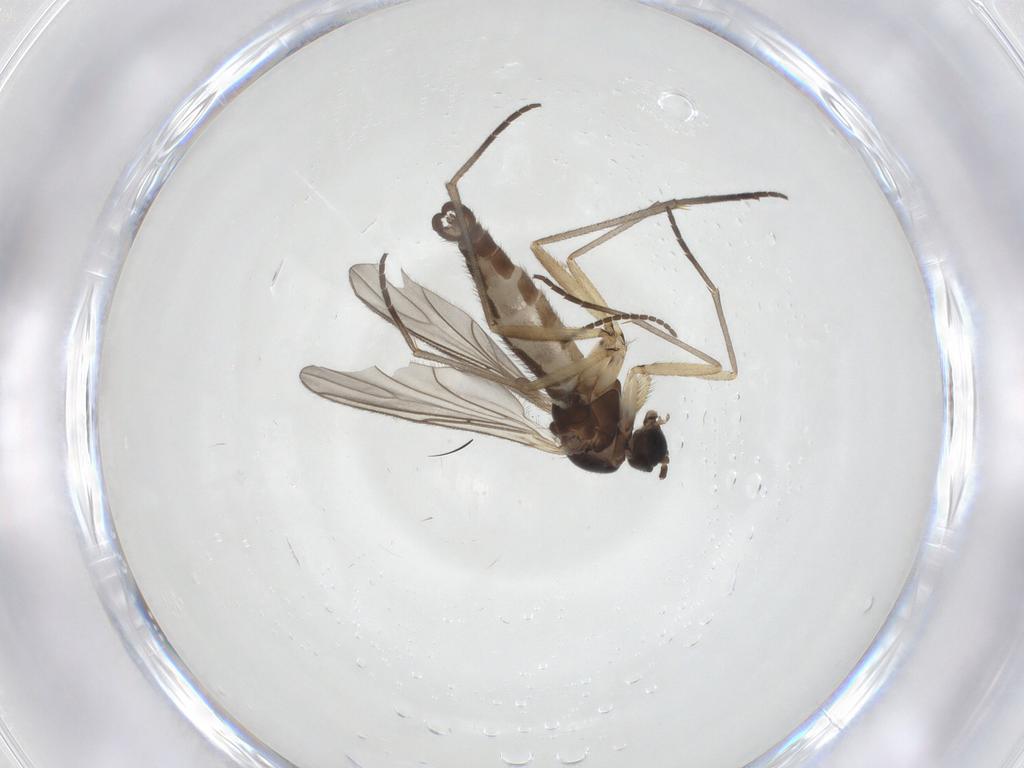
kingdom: Animalia
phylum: Arthropoda
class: Insecta
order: Diptera
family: Sciaridae
